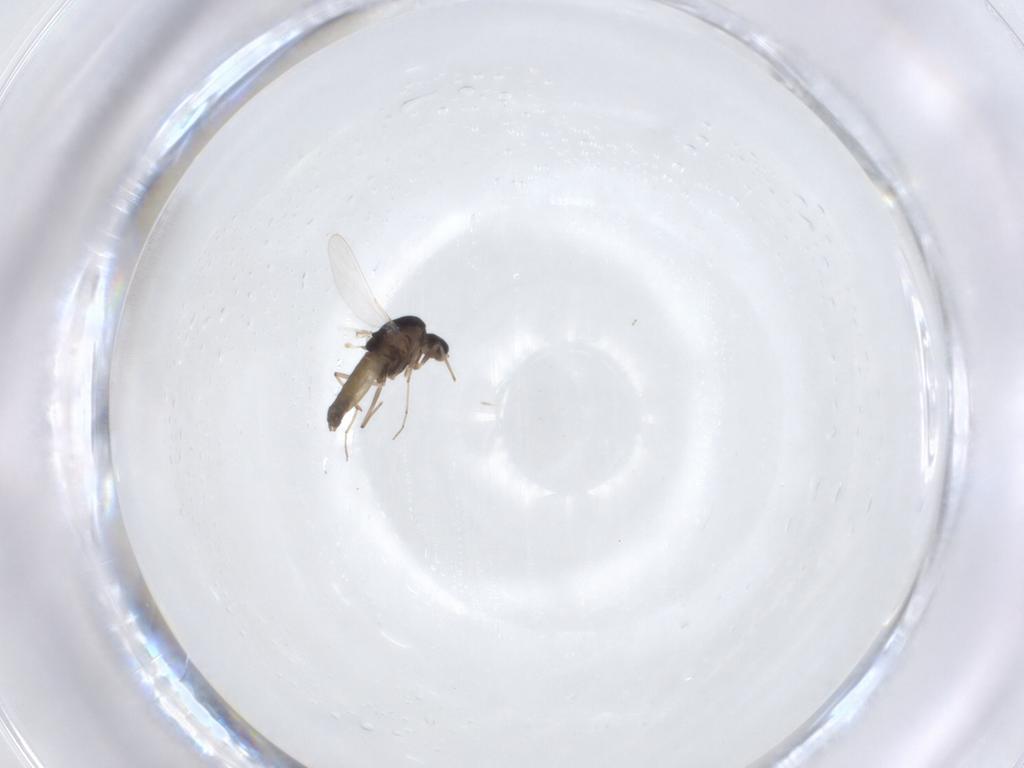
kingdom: Animalia
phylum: Arthropoda
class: Insecta
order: Diptera
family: Chironomidae
